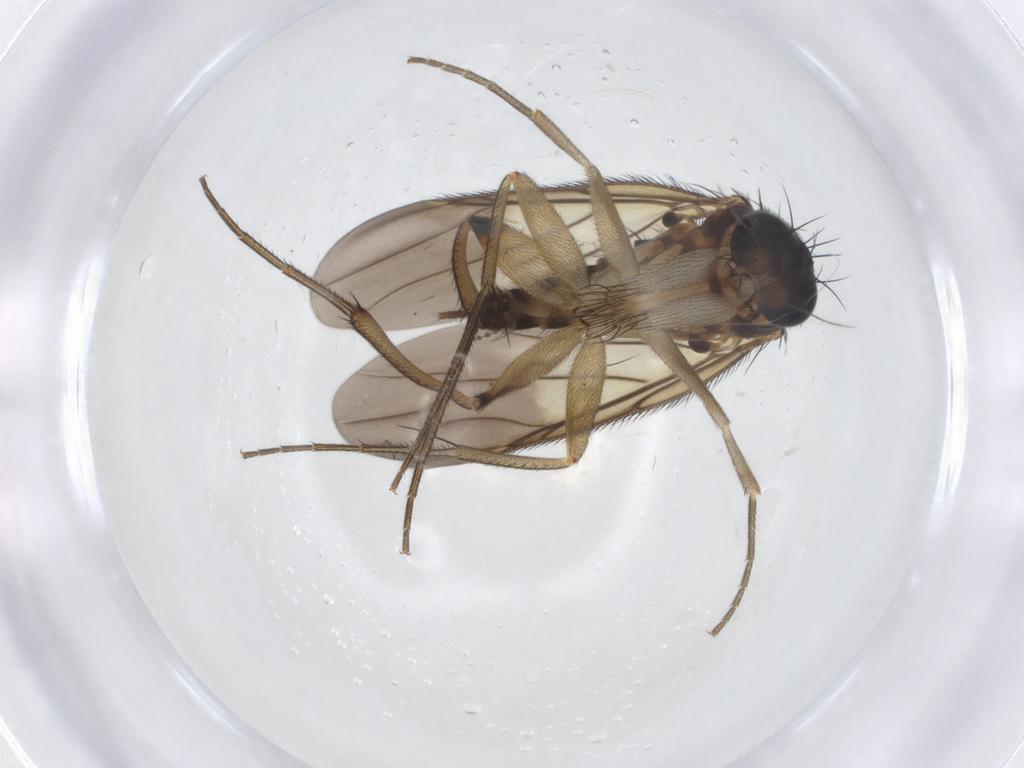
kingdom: Animalia
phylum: Arthropoda
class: Insecta
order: Diptera
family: Phoridae
